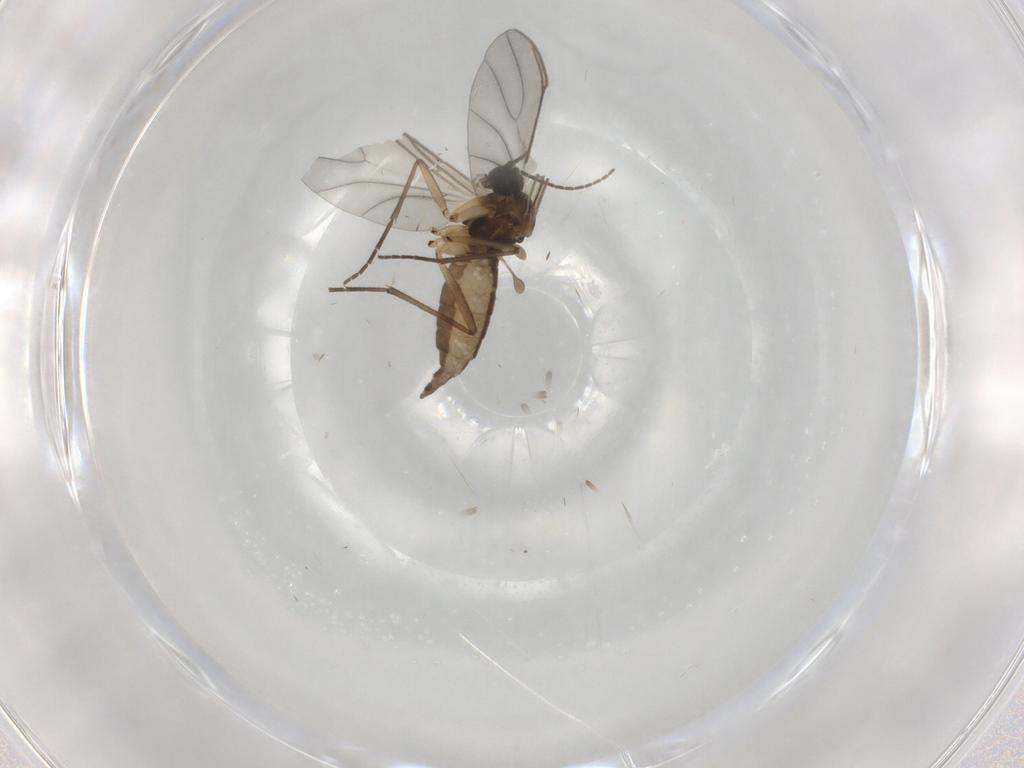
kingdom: Animalia
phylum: Arthropoda
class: Insecta
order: Diptera
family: Sciaridae
